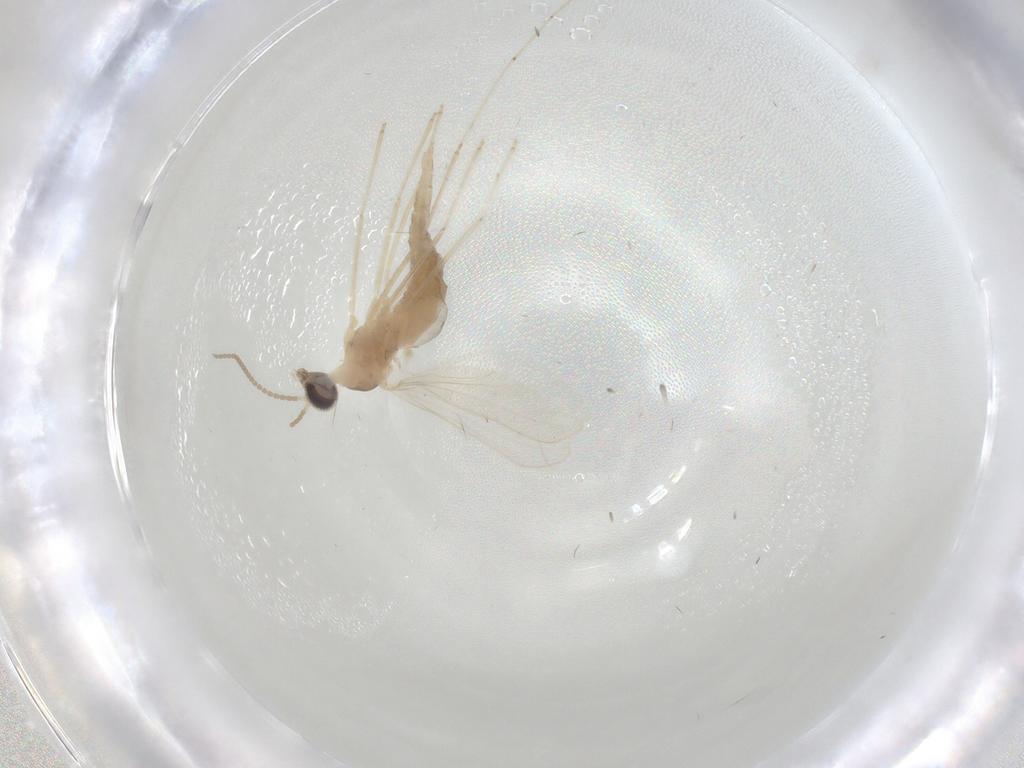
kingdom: Animalia
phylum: Arthropoda
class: Insecta
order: Diptera
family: Cecidomyiidae
